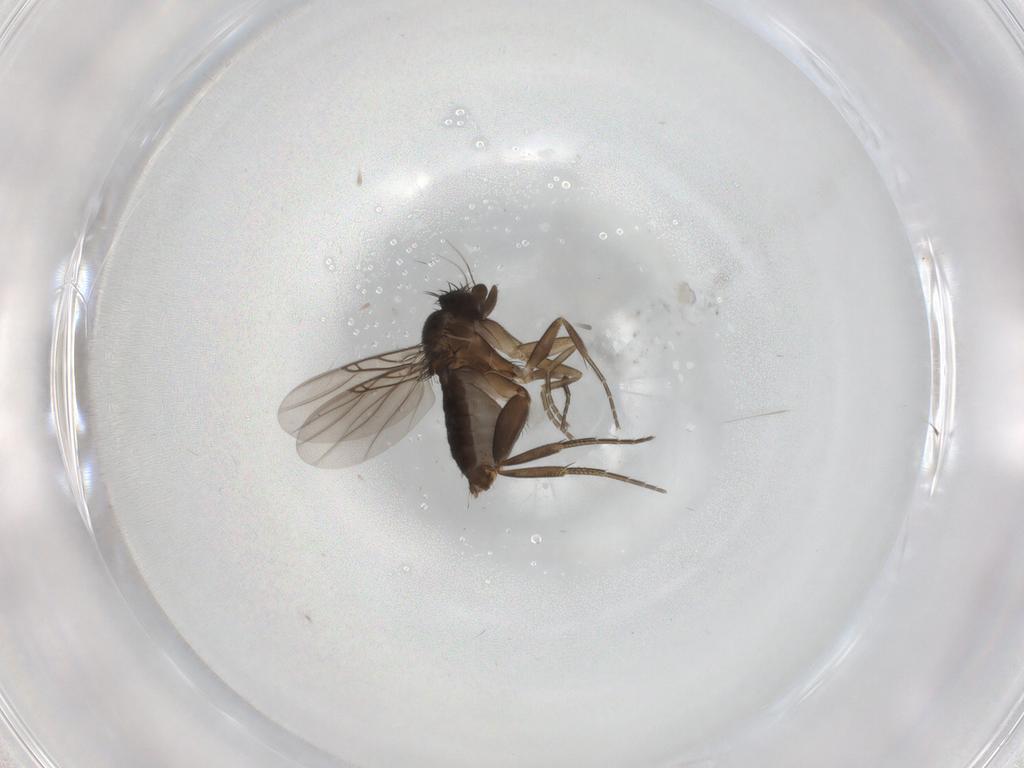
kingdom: Animalia
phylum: Arthropoda
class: Insecta
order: Diptera
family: Phoridae
